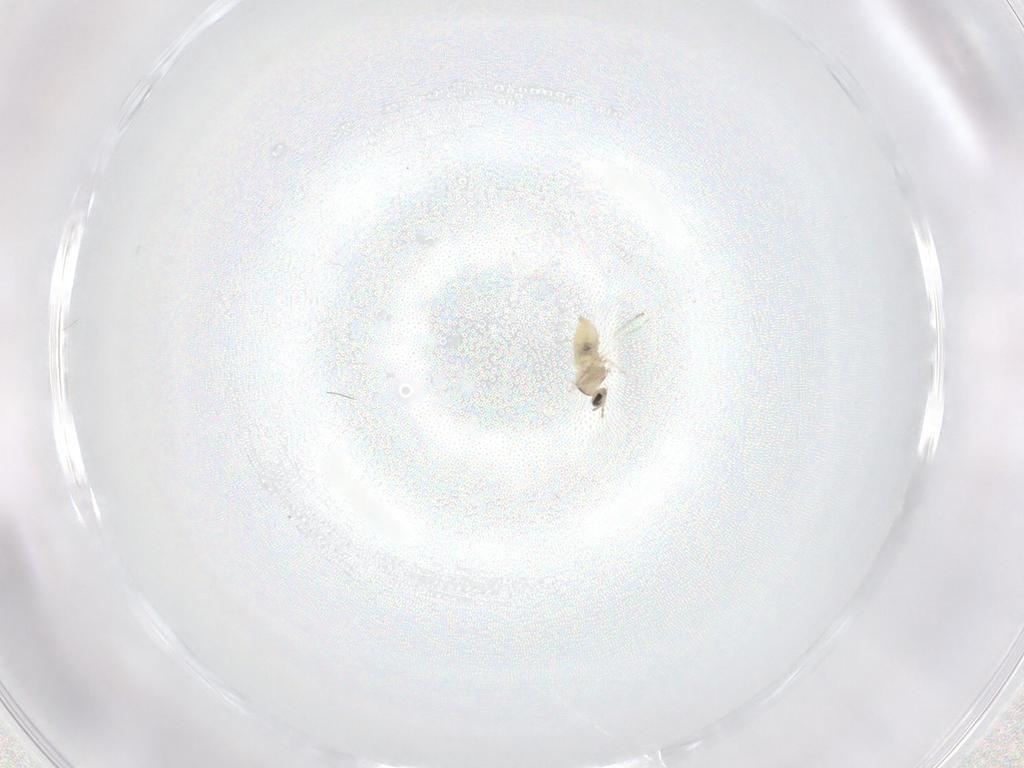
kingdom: Animalia
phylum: Arthropoda
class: Insecta
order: Diptera
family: Cecidomyiidae
